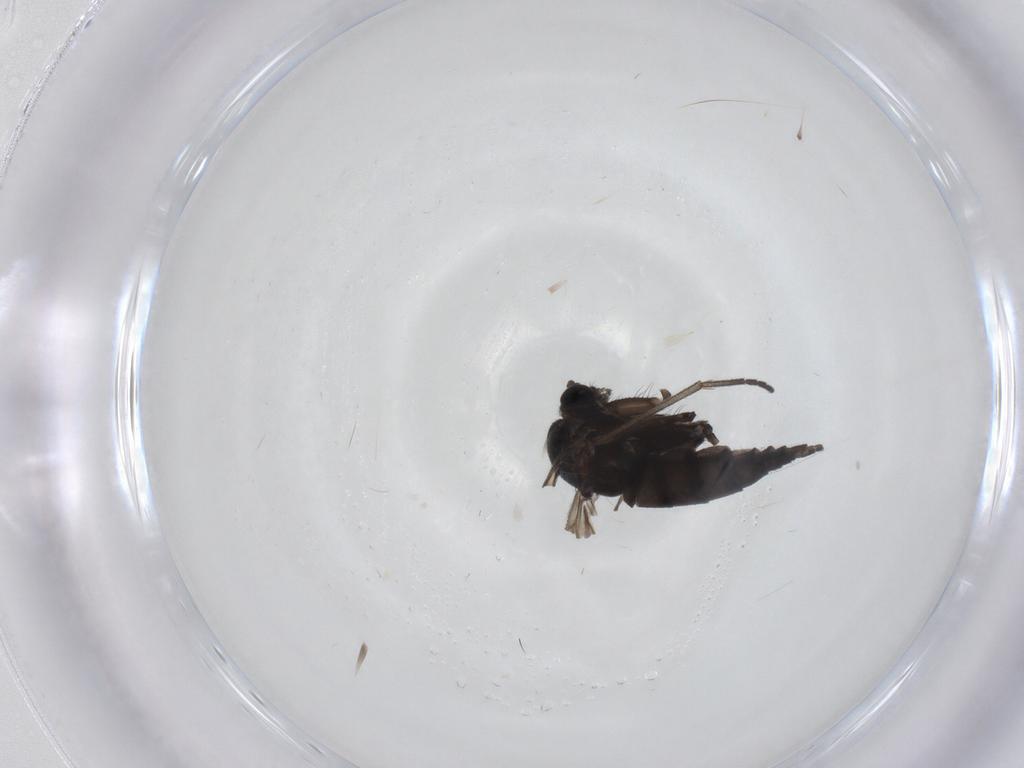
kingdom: Animalia
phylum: Arthropoda
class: Insecta
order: Diptera
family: Sciaridae
